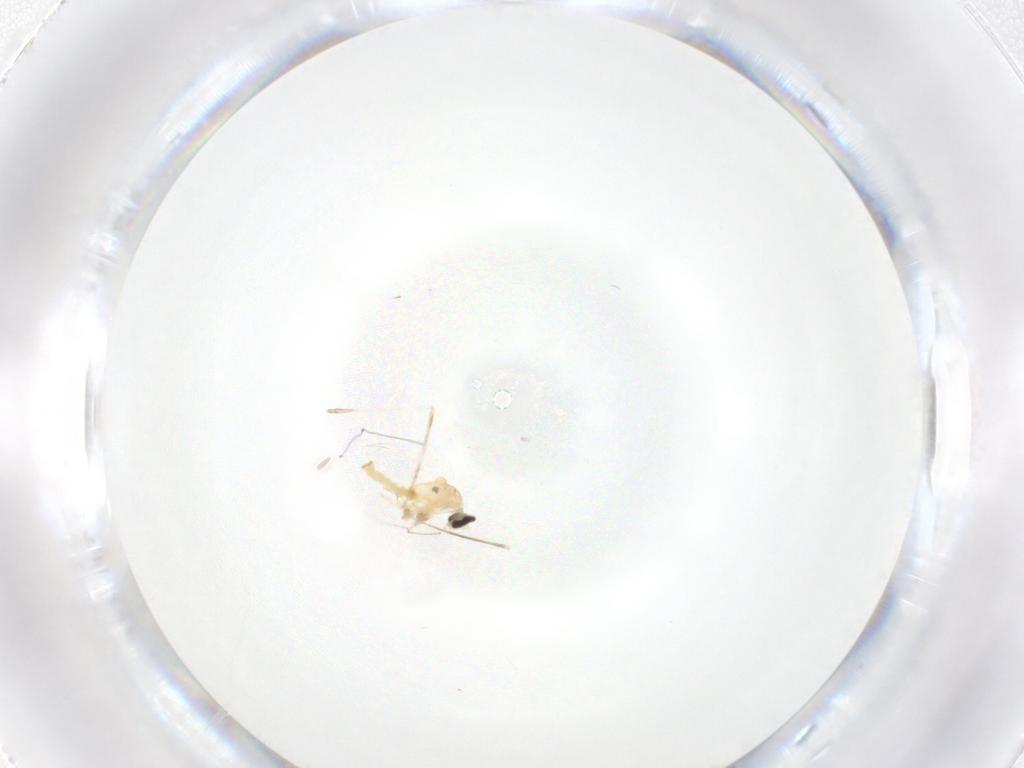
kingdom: Animalia
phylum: Arthropoda
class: Insecta
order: Diptera
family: Cecidomyiidae
